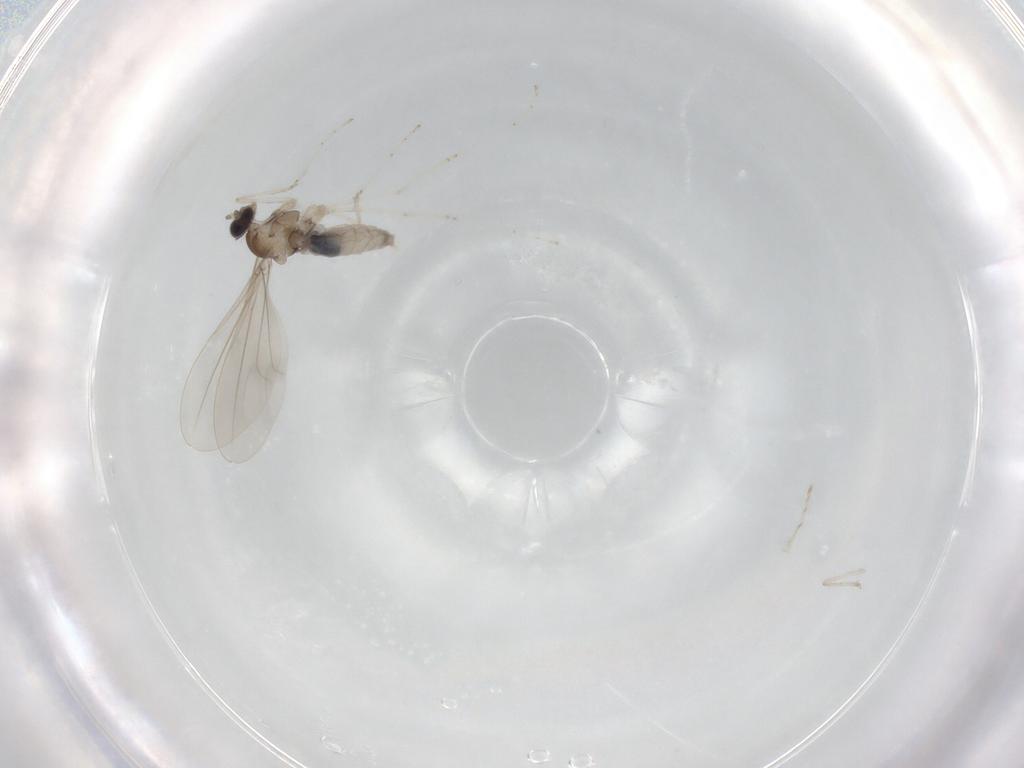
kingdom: Animalia
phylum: Arthropoda
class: Insecta
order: Diptera
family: Cecidomyiidae
